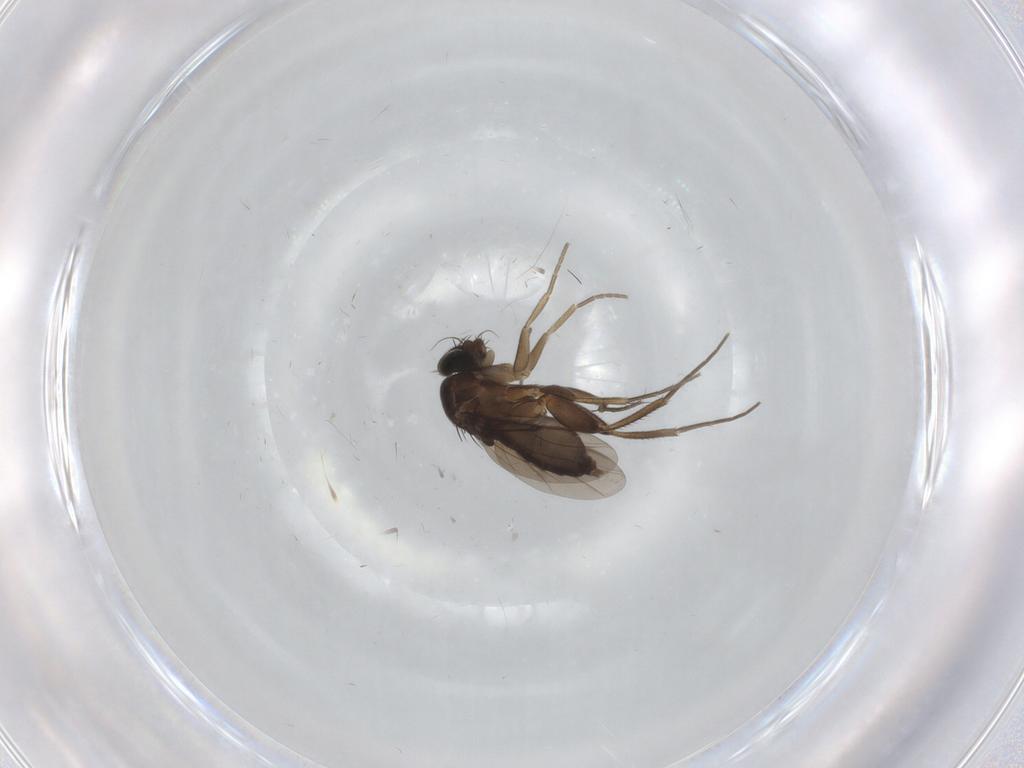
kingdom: Animalia
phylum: Arthropoda
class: Insecta
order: Diptera
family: Phoridae
